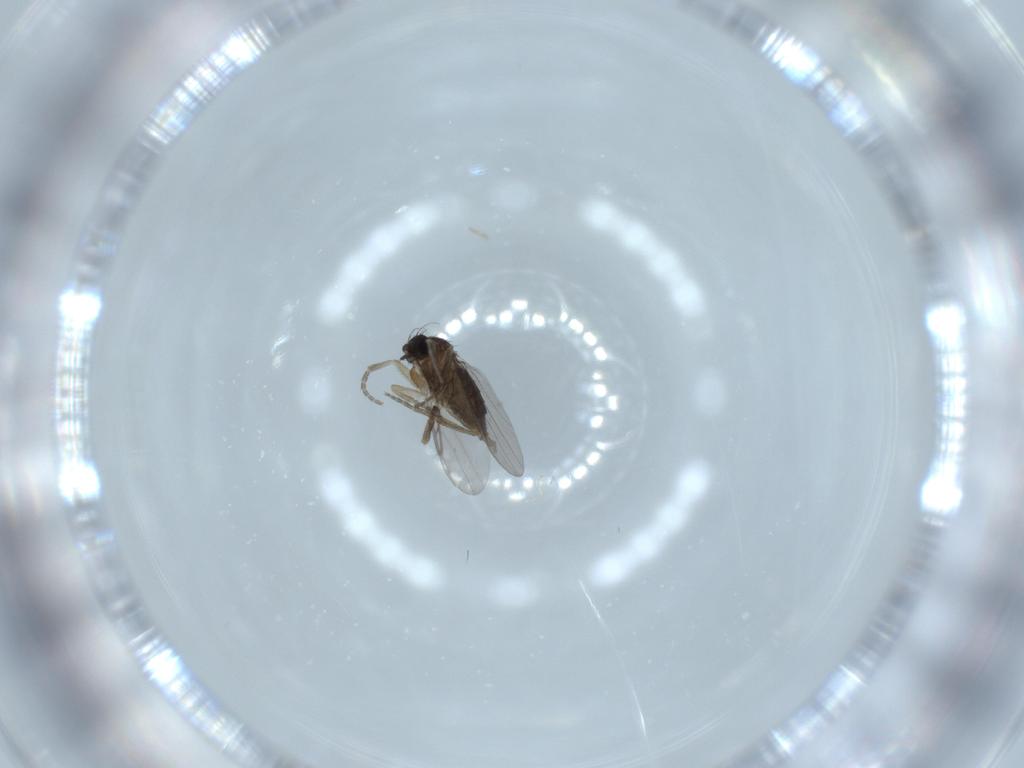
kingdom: Animalia
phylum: Arthropoda
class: Insecta
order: Diptera
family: Phoridae
